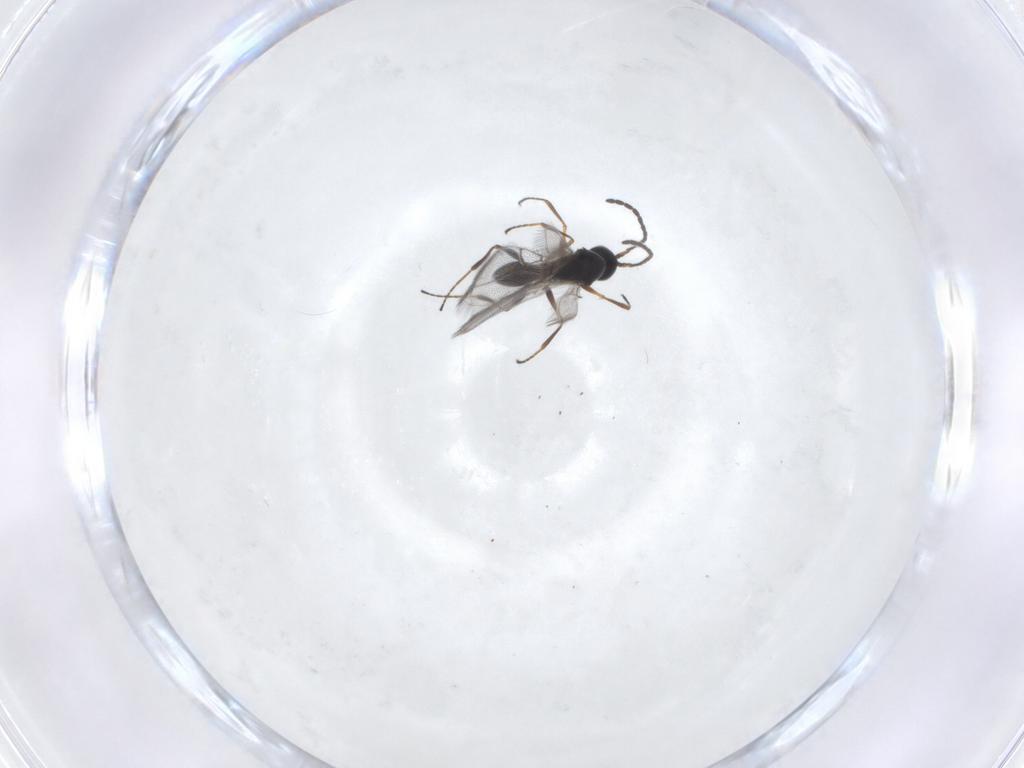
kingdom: Animalia
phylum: Arthropoda
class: Insecta
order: Hymenoptera
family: Figitidae
